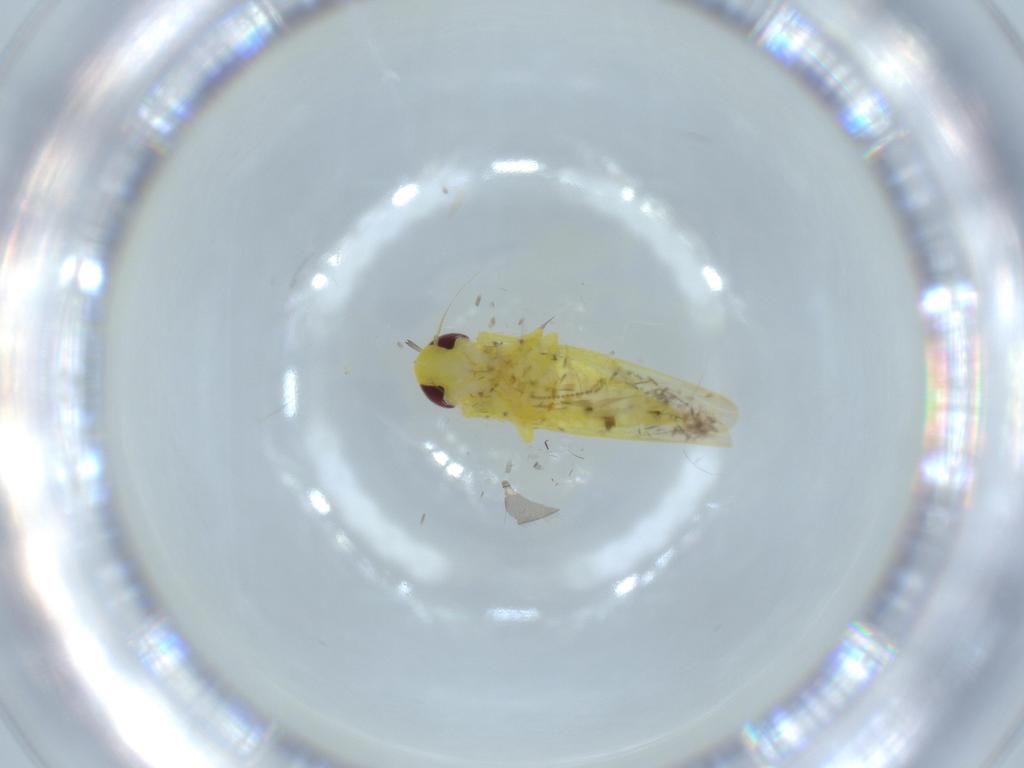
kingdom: Animalia
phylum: Arthropoda
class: Insecta
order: Hemiptera
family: Cicadellidae
